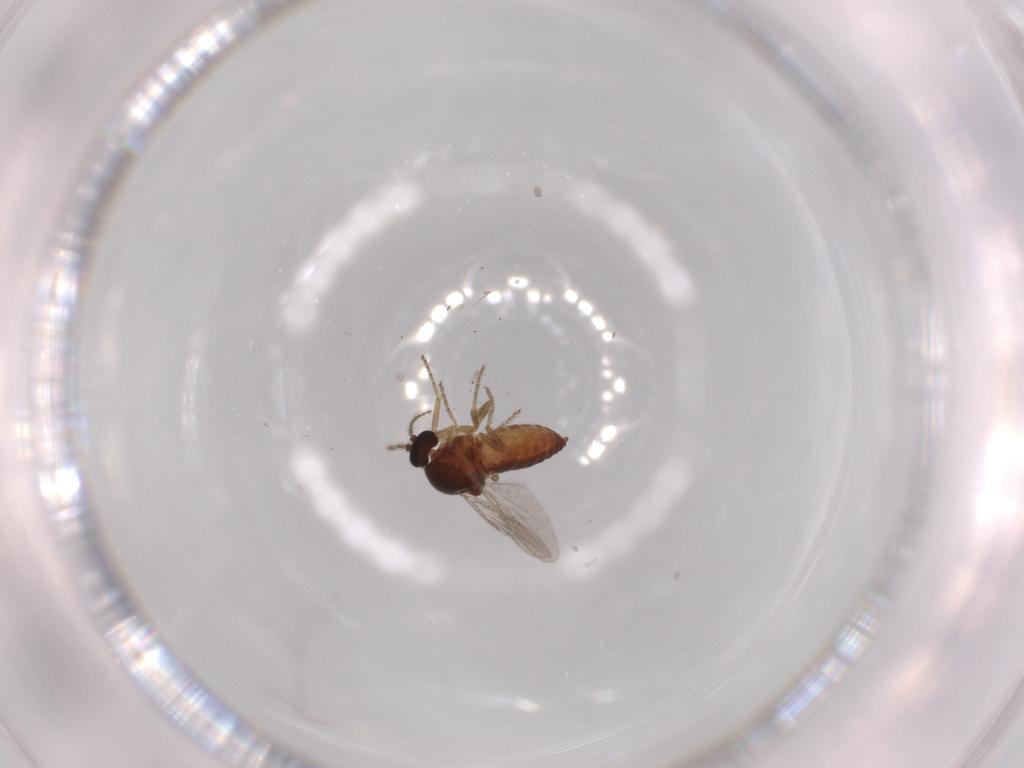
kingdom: Animalia
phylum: Arthropoda
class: Insecta
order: Diptera
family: Ceratopogonidae
